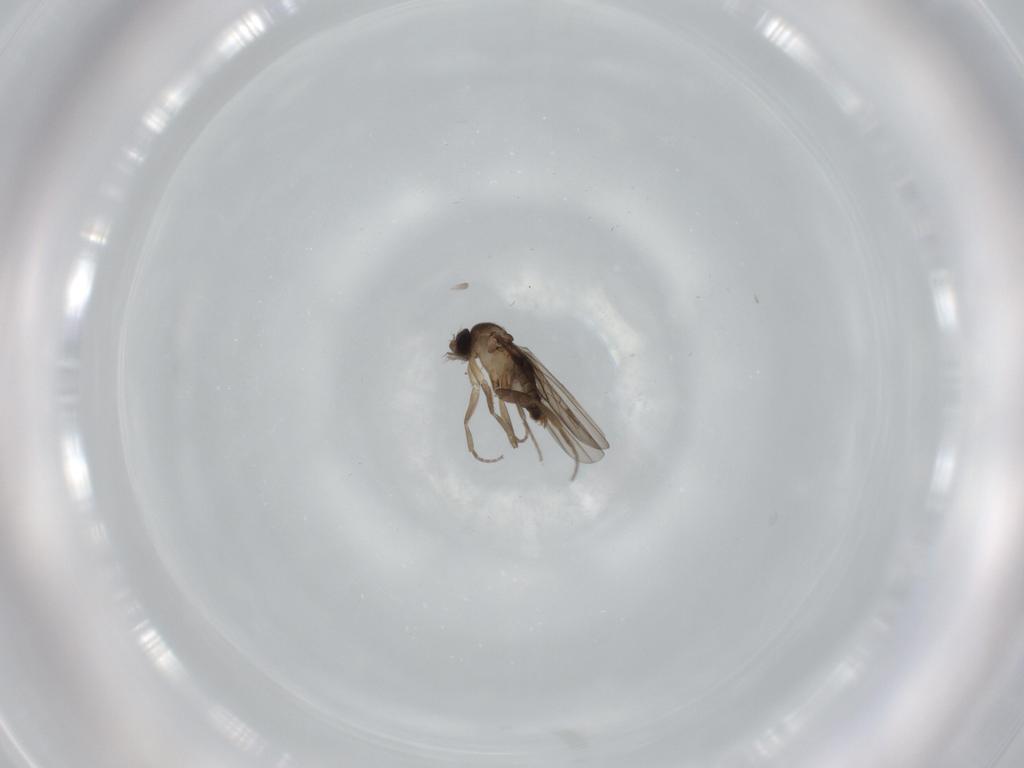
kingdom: Animalia
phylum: Arthropoda
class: Insecta
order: Diptera
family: Phoridae
